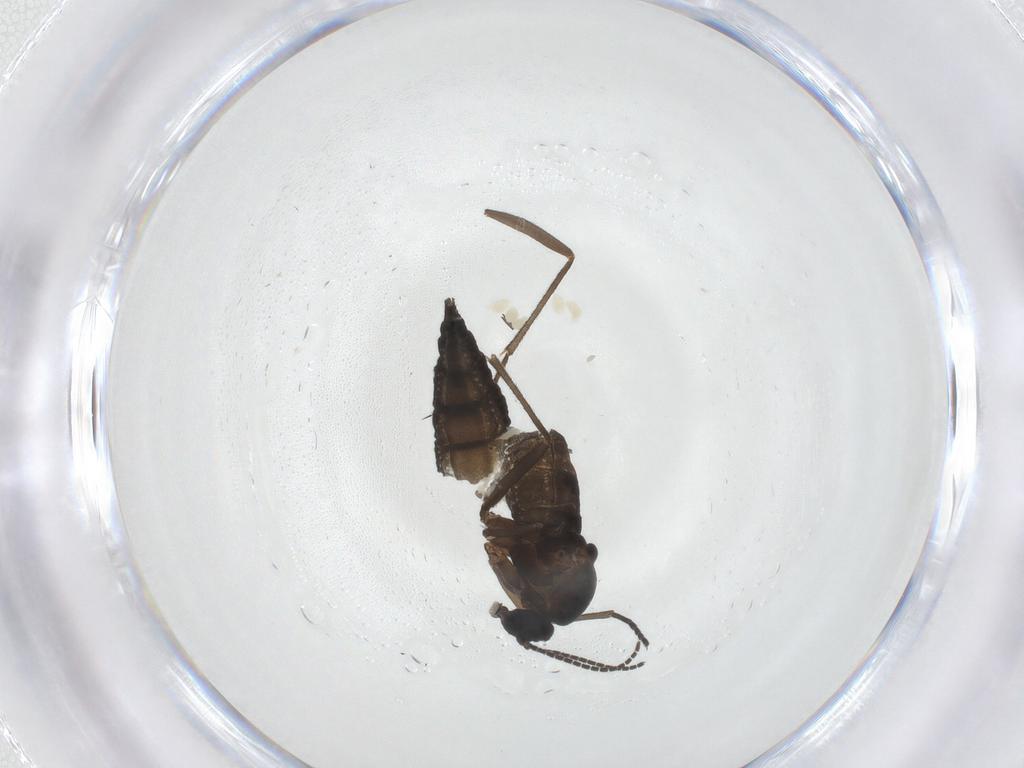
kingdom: Animalia
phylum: Arthropoda
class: Insecta
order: Diptera
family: Sciaridae
